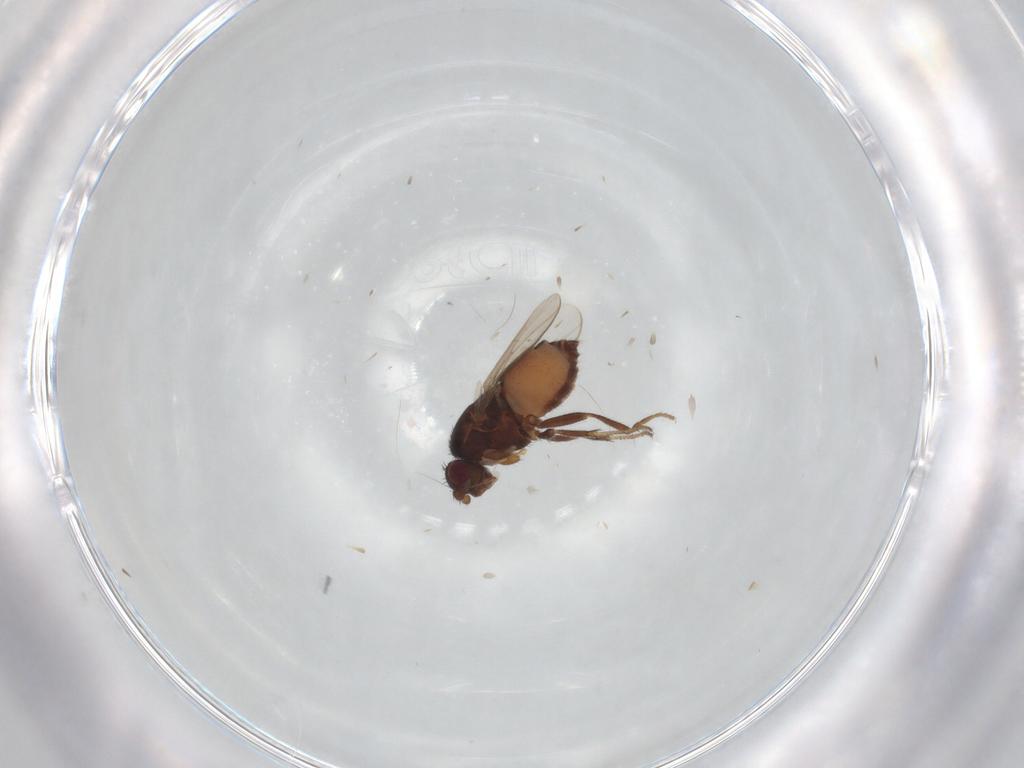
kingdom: Animalia
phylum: Arthropoda
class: Insecta
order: Diptera
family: Sphaeroceridae
